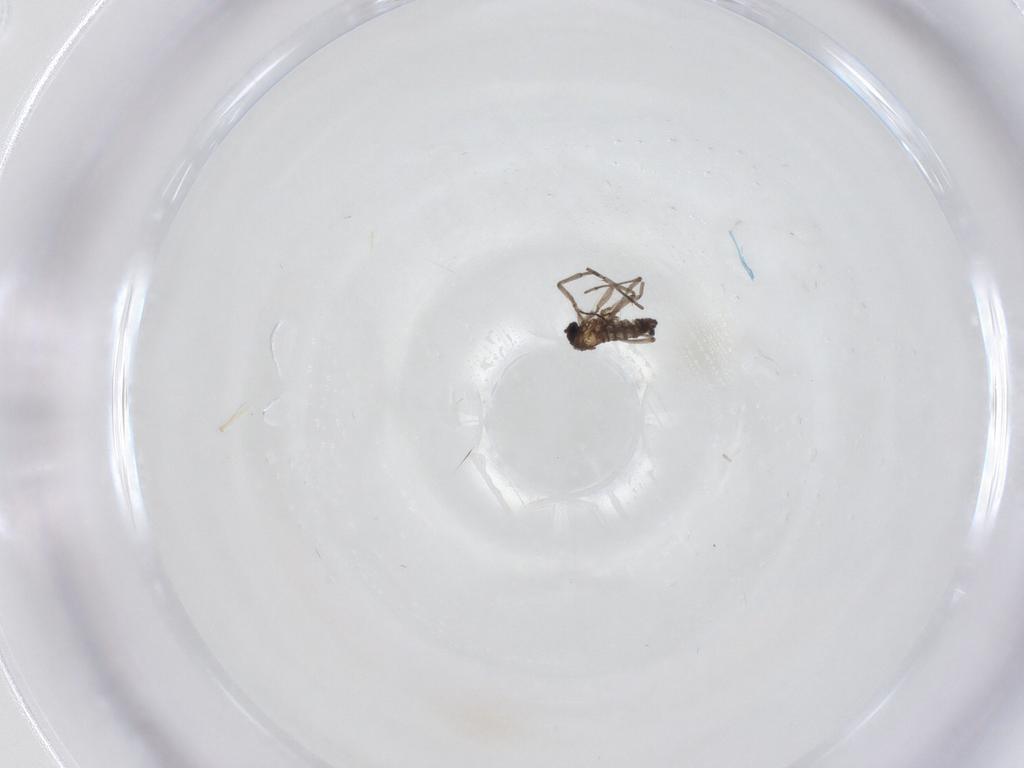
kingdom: Animalia
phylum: Arthropoda
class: Insecta
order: Diptera
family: Sciaridae
